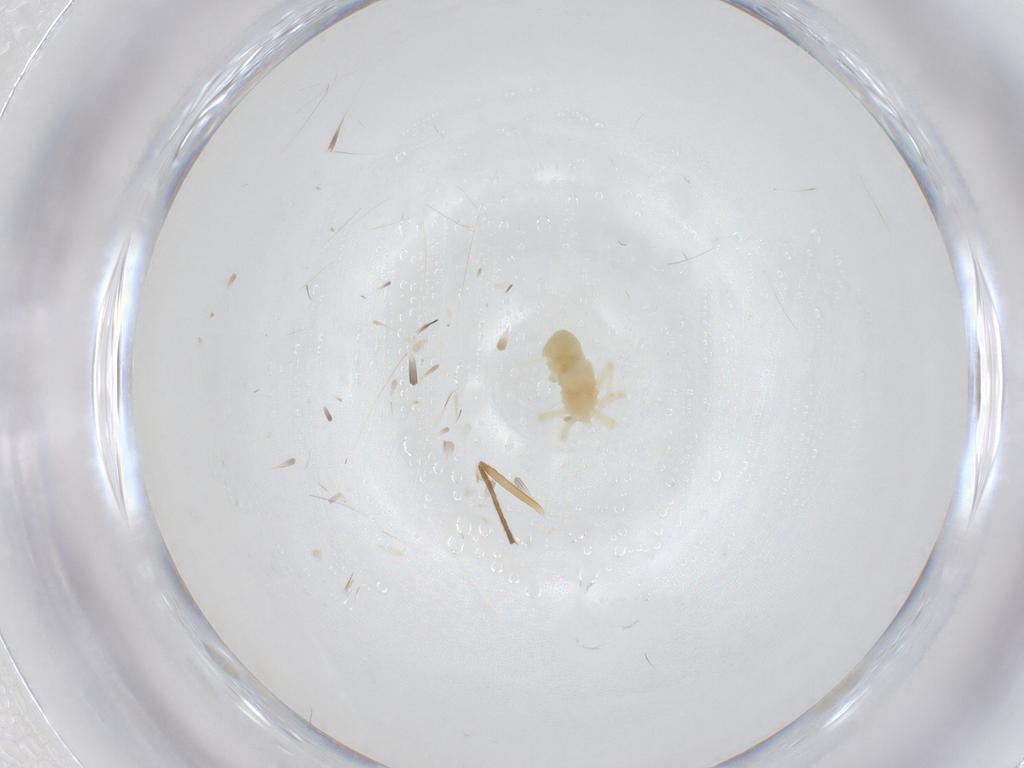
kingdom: Animalia
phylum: Arthropoda
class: Arachnida
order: Trombidiformes
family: Anystidae
